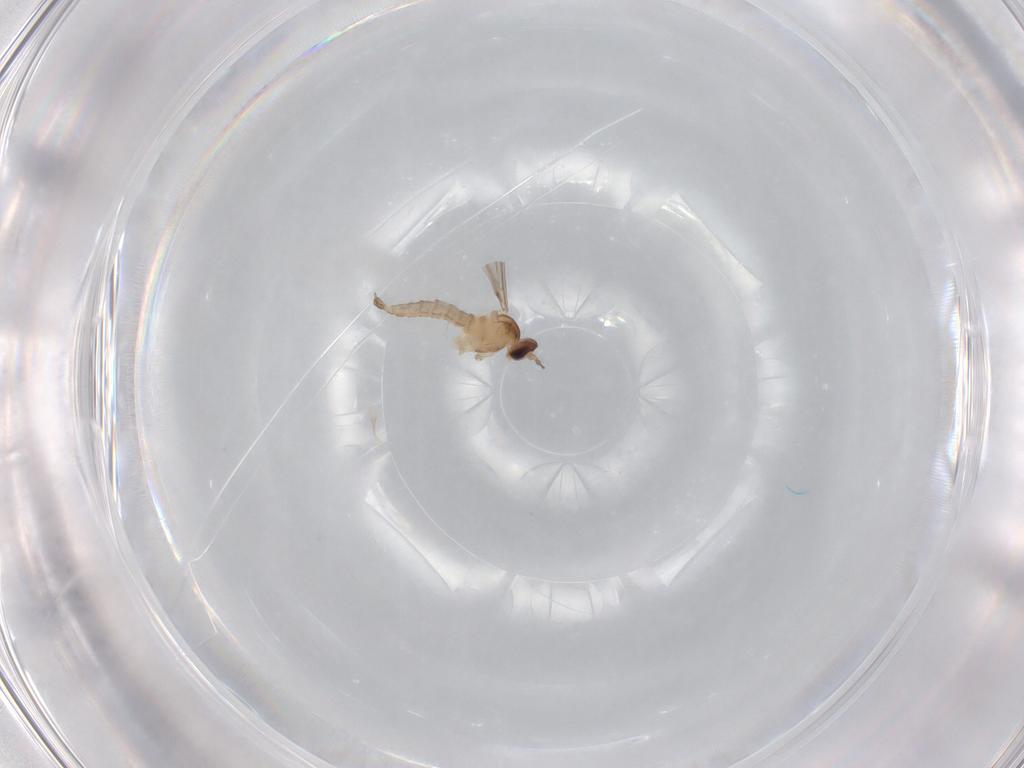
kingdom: Animalia
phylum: Arthropoda
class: Insecta
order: Diptera
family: Cecidomyiidae
